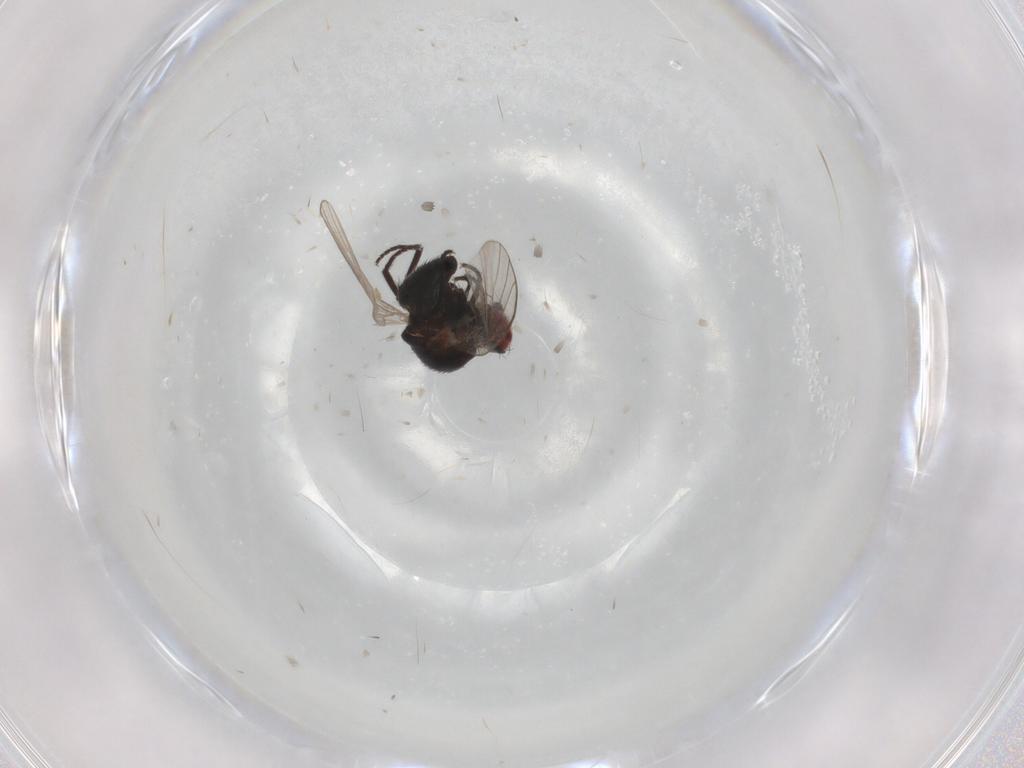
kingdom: Animalia
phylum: Arthropoda
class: Insecta
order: Diptera
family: Agromyzidae
